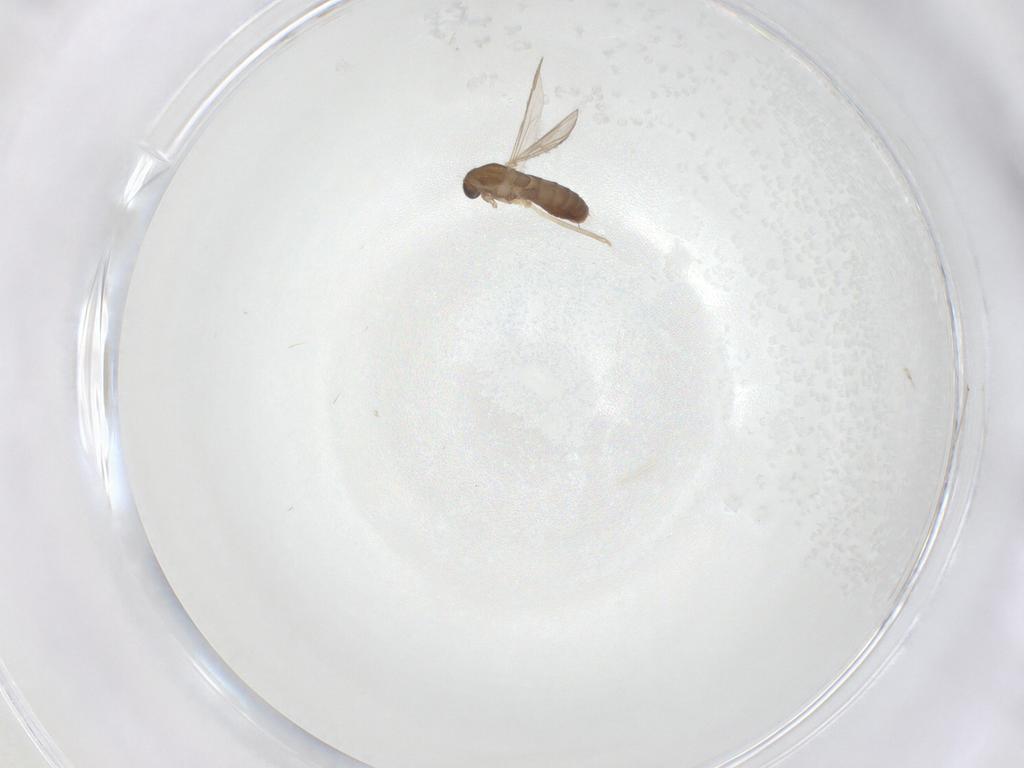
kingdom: Animalia
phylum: Arthropoda
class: Insecta
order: Diptera
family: Chironomidae
